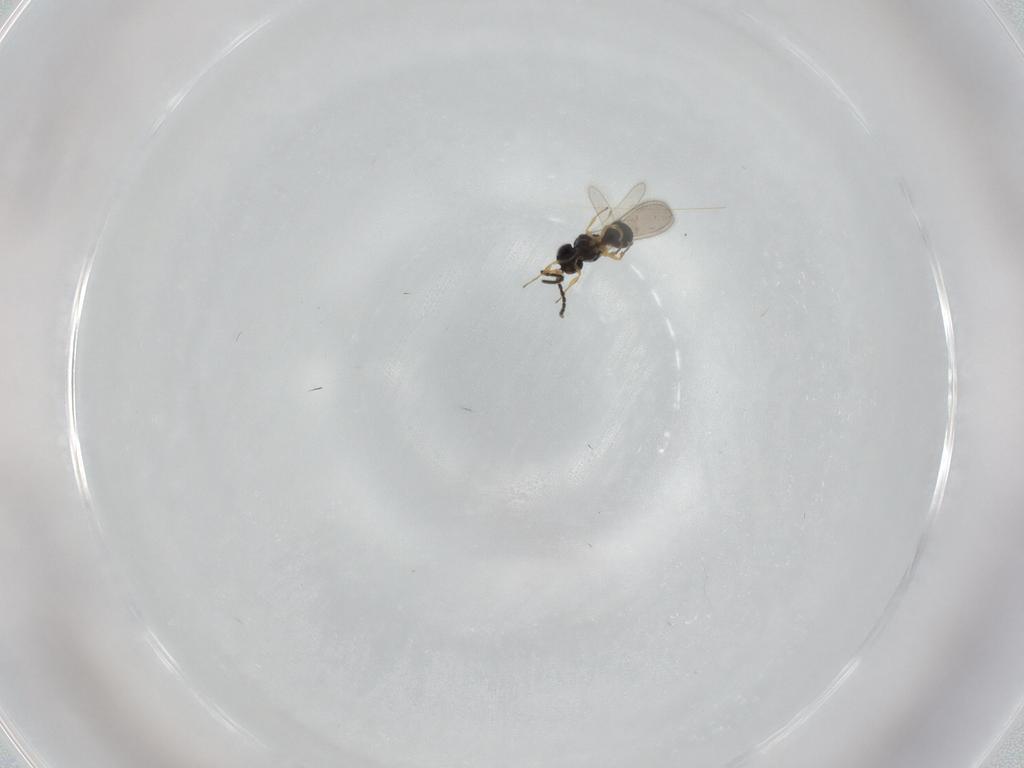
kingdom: Animalia
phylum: Arthropoda
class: Insecta
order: Hymenoptera
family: Scelionidae
